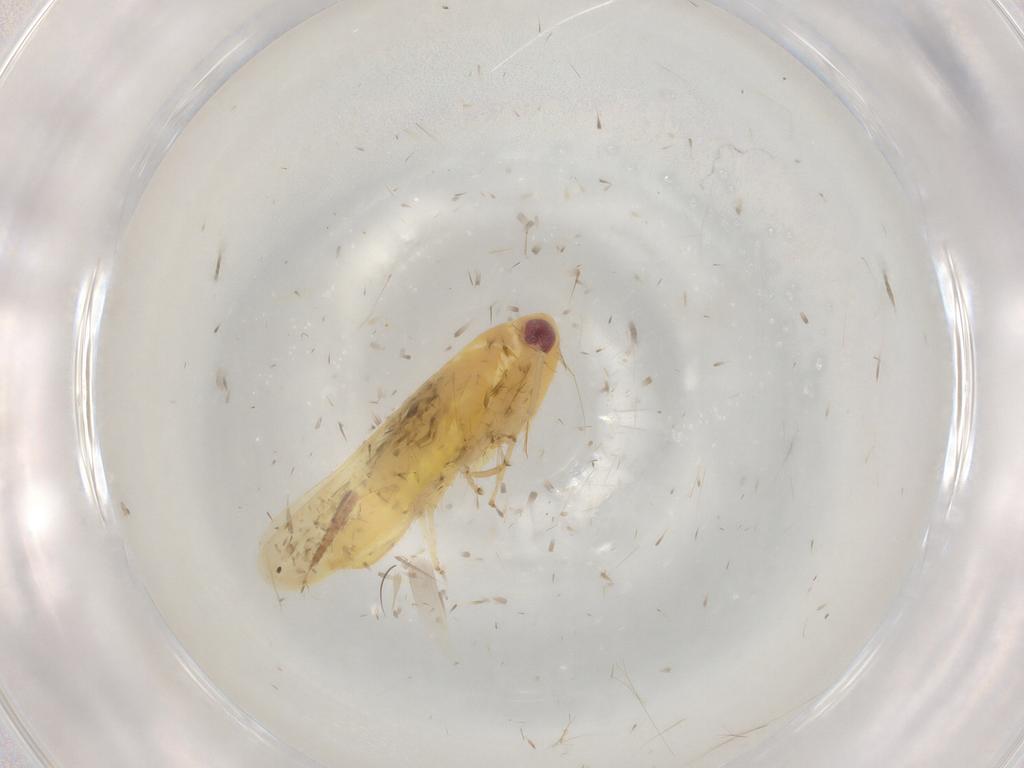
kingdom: Animalia
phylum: Arthropoda
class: Insecta
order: Hemiptera
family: Cicadellidae
